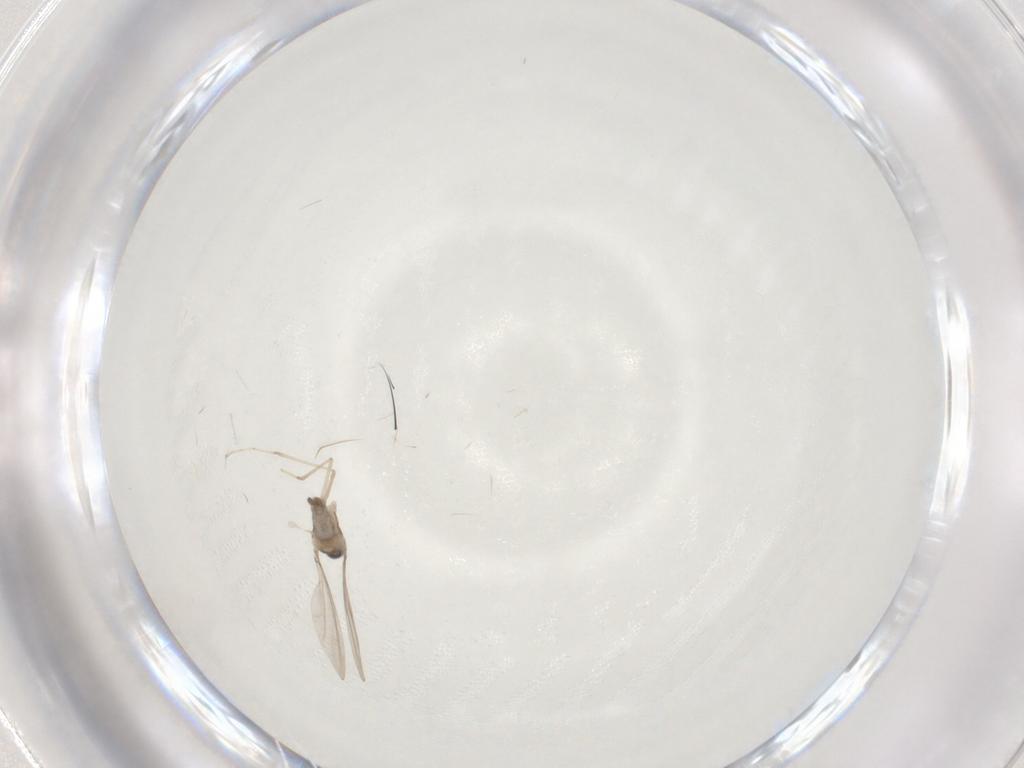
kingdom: Animalia
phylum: Arthropoda
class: Insecta
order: Diptera
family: Cecidomyiidae
